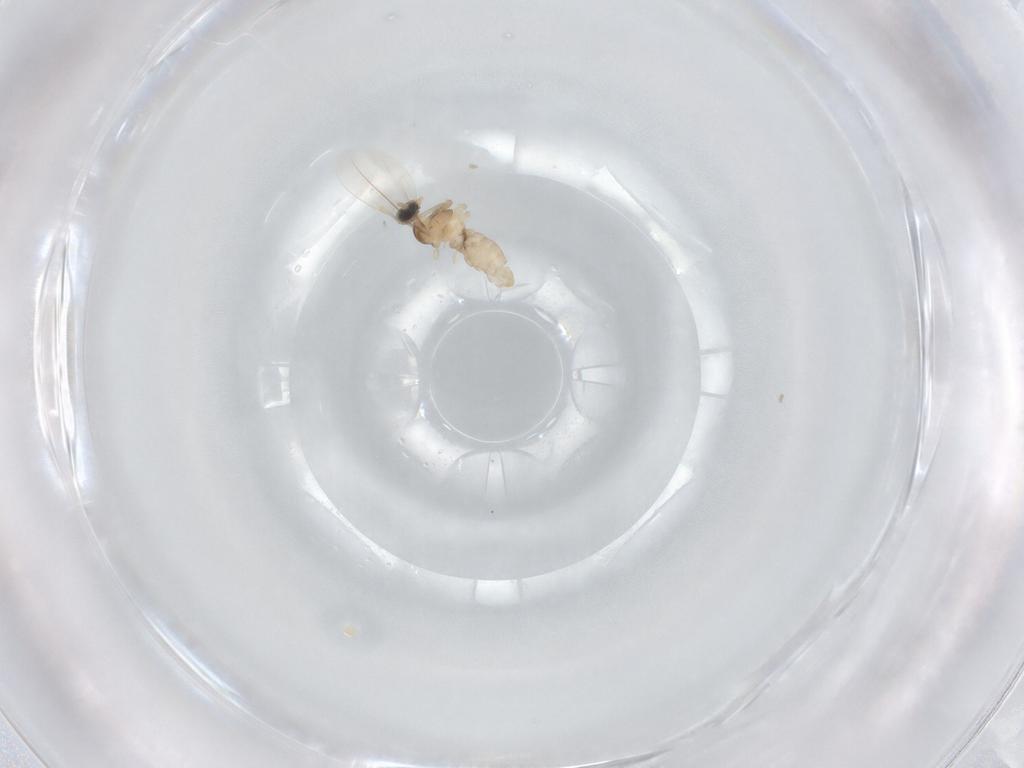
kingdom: Animalia
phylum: Arthropoda
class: Insecta
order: Diptera
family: Cecidomyiidae
